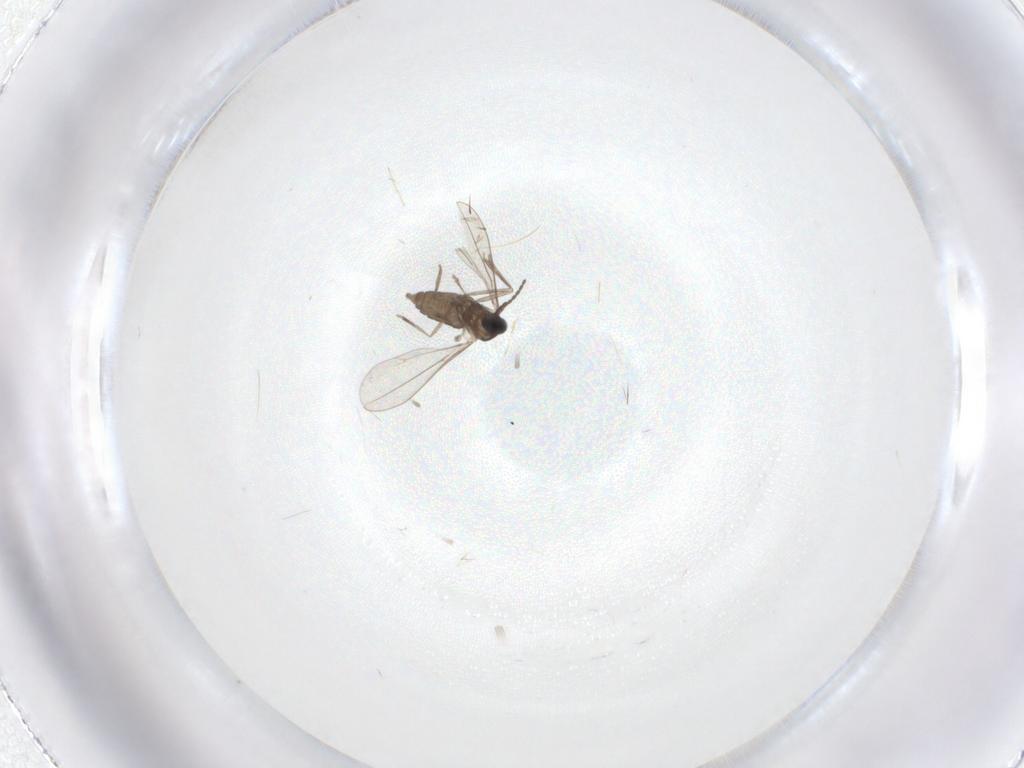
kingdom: Animalia
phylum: Arthropoda
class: Insecta
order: Diptera
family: Cecidomyiidae
